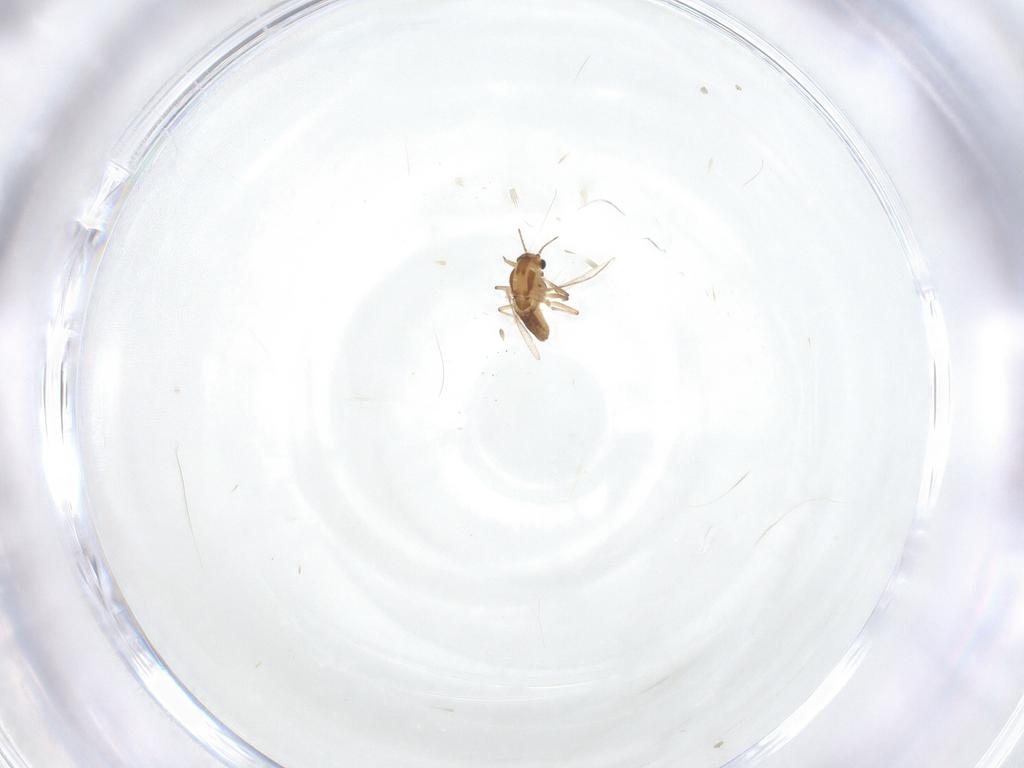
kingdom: Animalia
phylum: Arthropoda
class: Insecta
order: Diptera
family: Chironomidae
